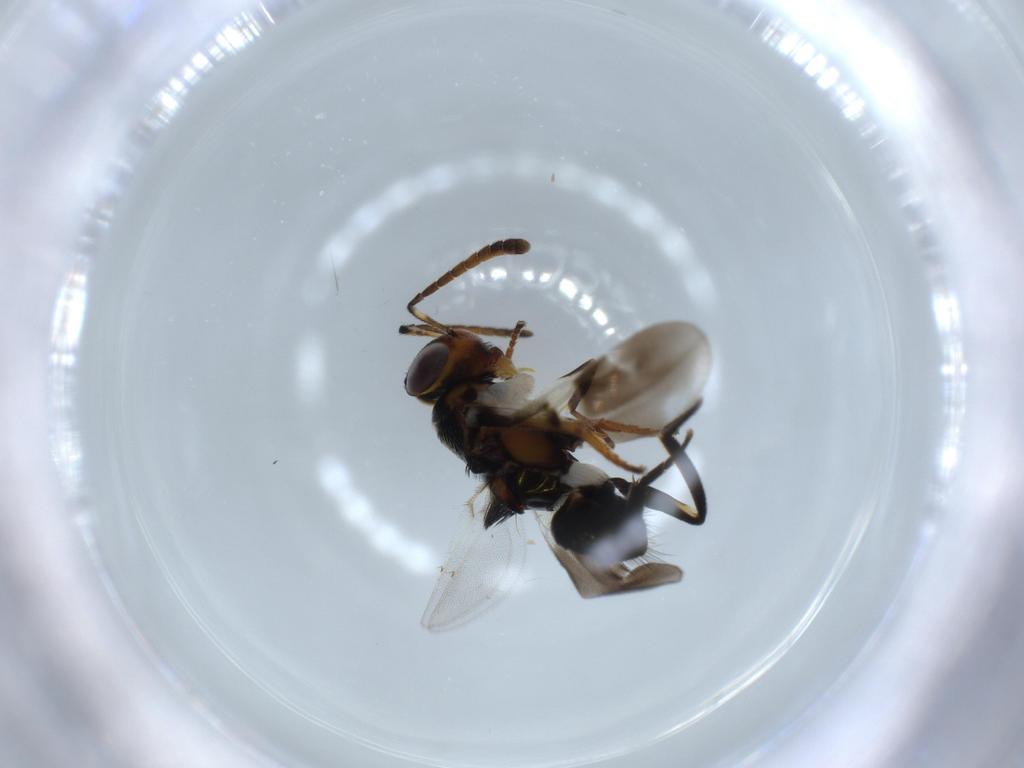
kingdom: Animalia
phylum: Arthropoda
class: Insecta
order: Hymenoptera
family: Encyrtidae
